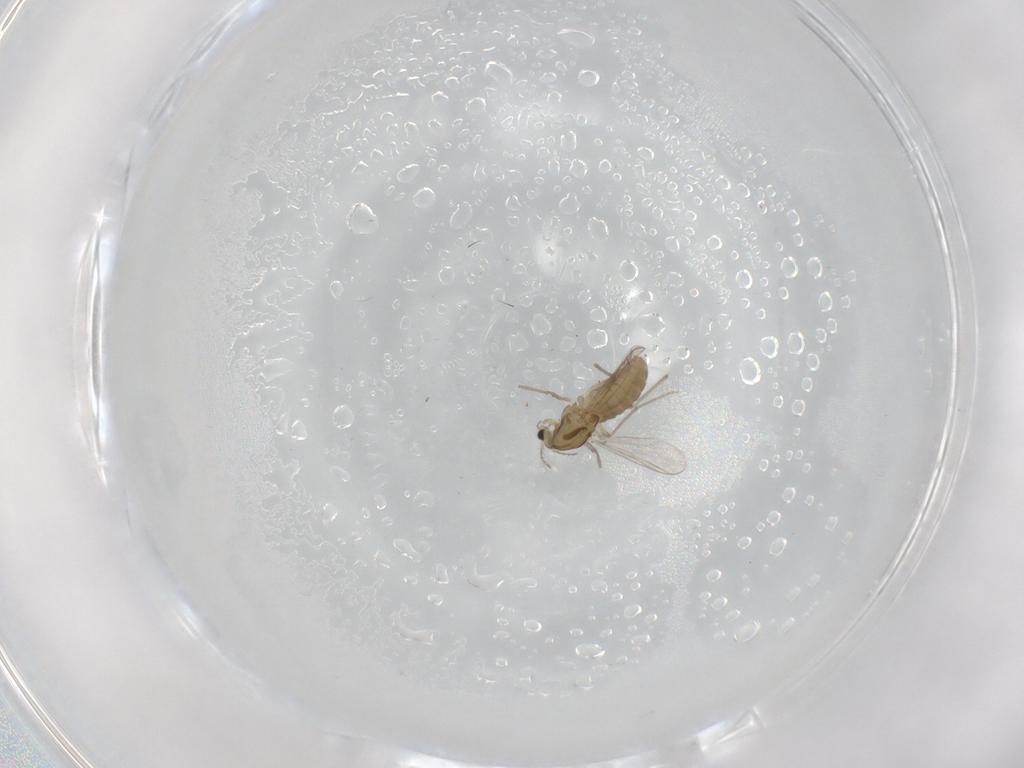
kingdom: Animalia
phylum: Arthropoda
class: Insecta
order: Diptera
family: Chironomidae
